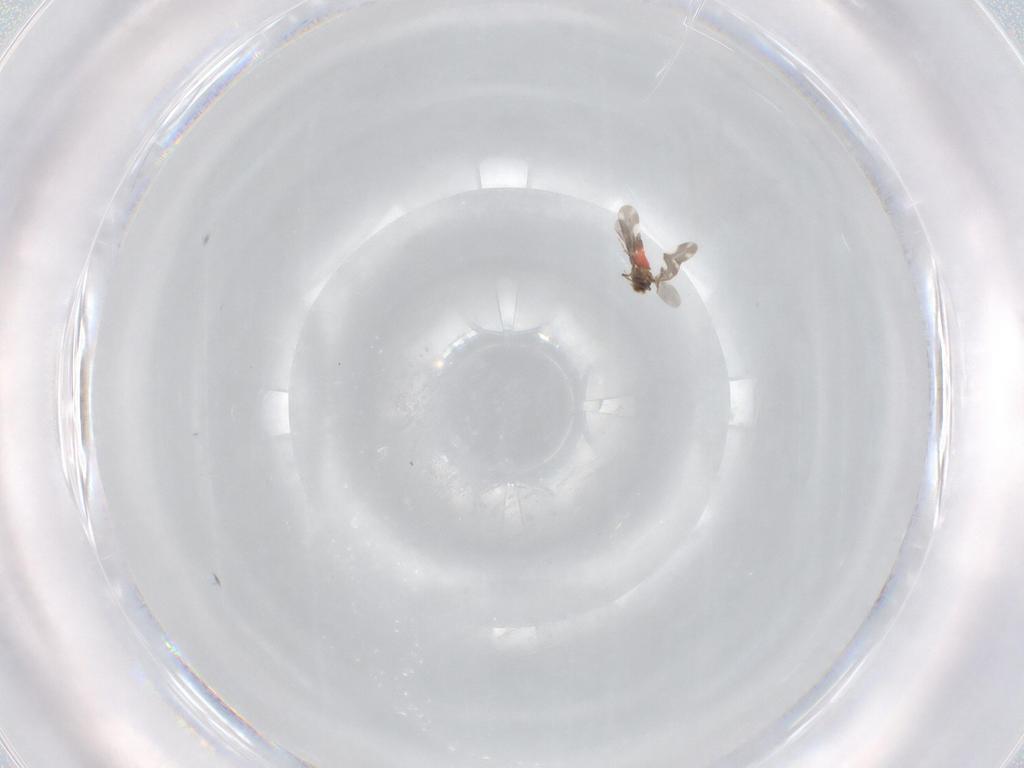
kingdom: Animalia
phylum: Arthropoda
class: Insecta
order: Hemiptera
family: Aleyrodidae
